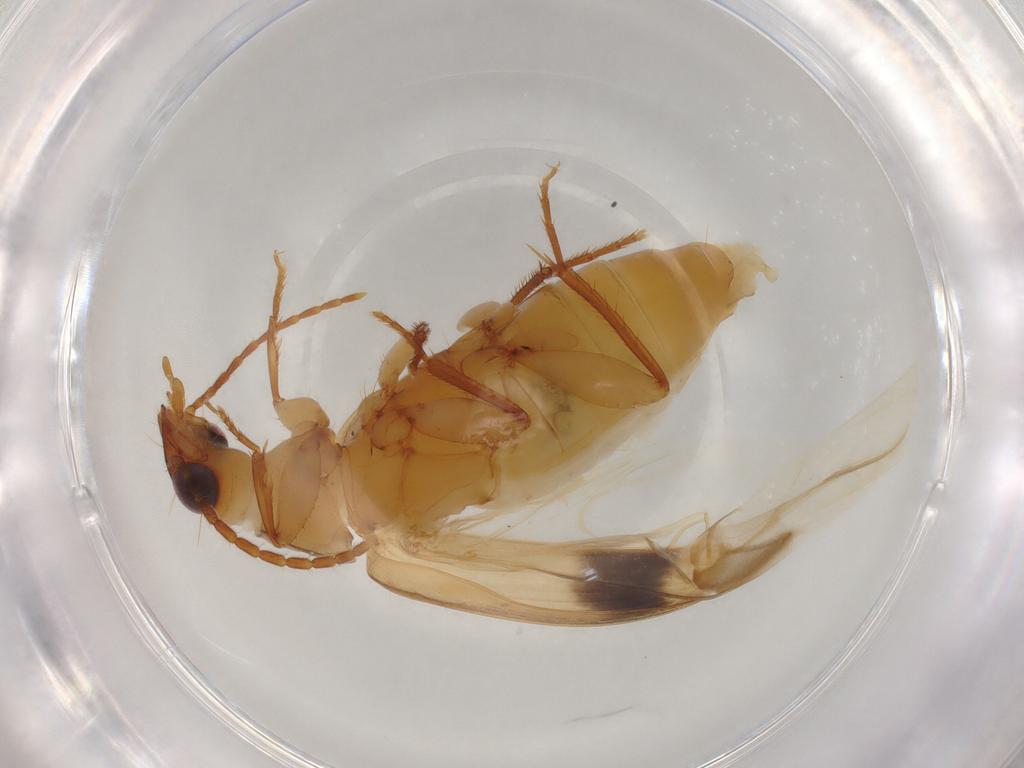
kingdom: Animalia
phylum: Arthropoda
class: Insecta
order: Coleoptera
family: Carabidae
